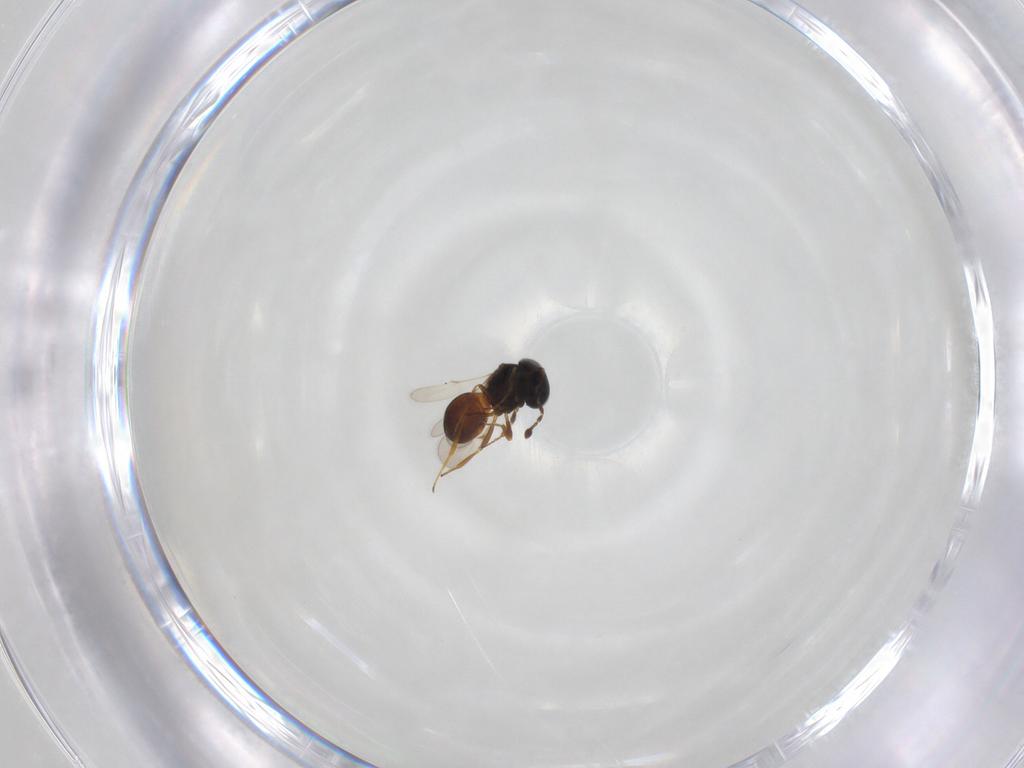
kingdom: Animalia
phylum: Arthropoda
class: Insecta
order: Hymenoptera
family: Scelionidae
